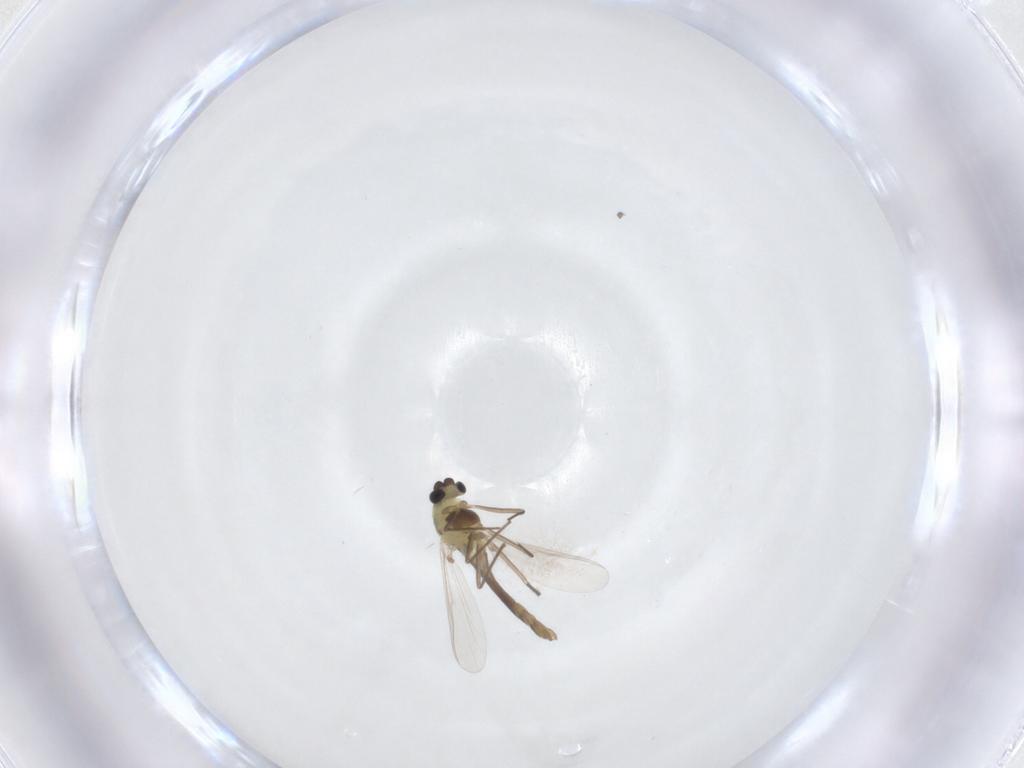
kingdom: Animalia
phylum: Arthropoda
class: Insecta
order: Diptera
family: Chironomidae
